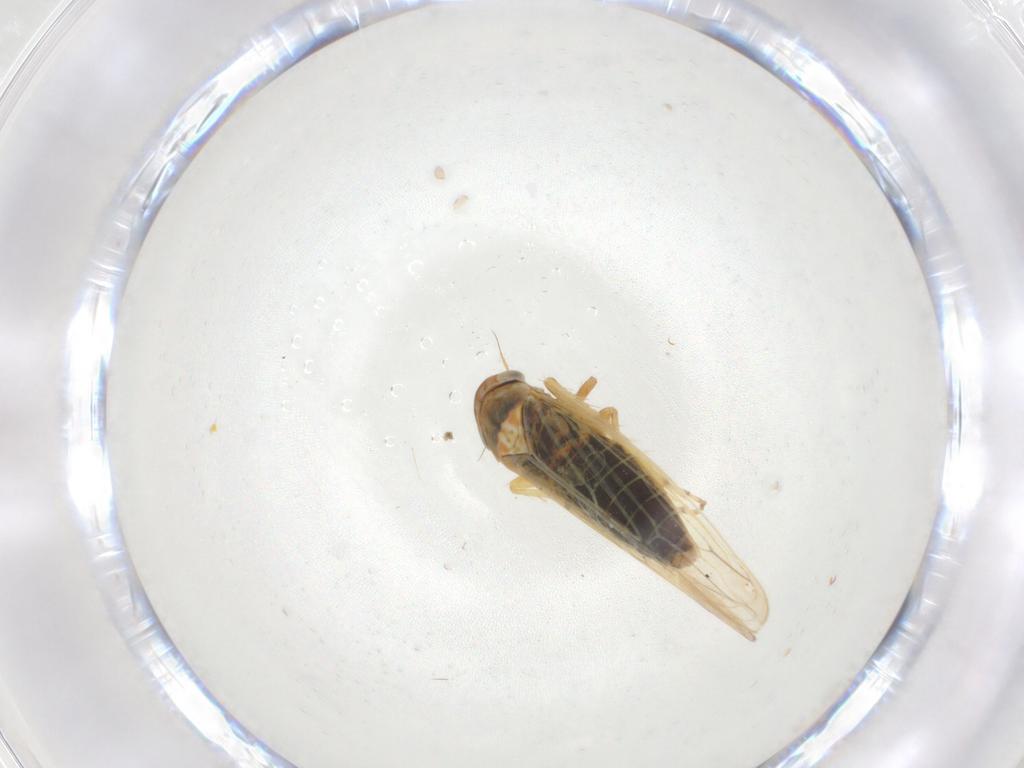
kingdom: Animalia
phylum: Arthropoda
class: Insecta
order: Hemiptera
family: Cicadellidae
